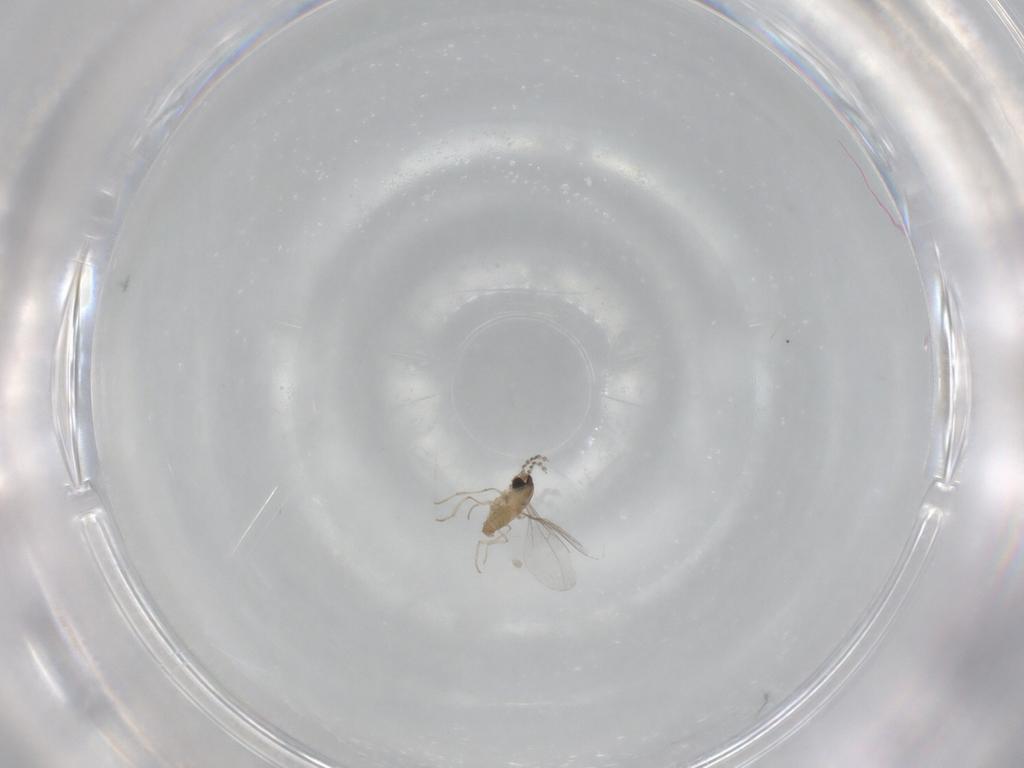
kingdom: Animalia
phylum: Arthropoda
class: Insecta
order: Diptera
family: Cecidomyiidae
